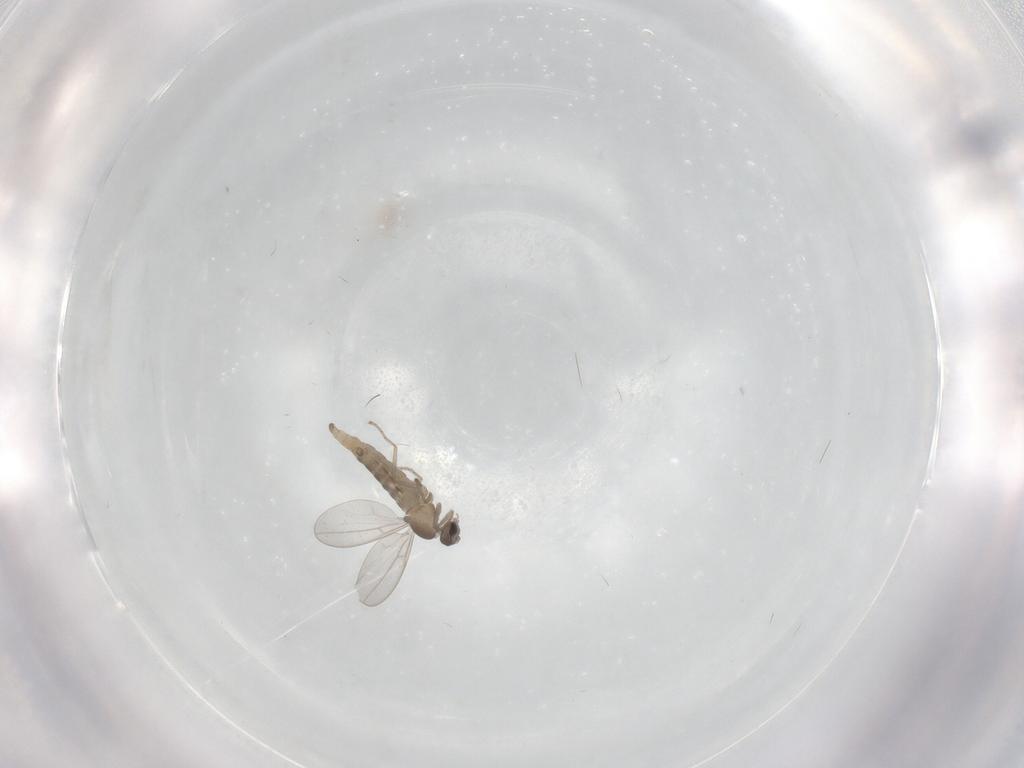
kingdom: Animalia
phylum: Arthropoda
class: Insecta
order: Diptera
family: Ceratopogonidae
